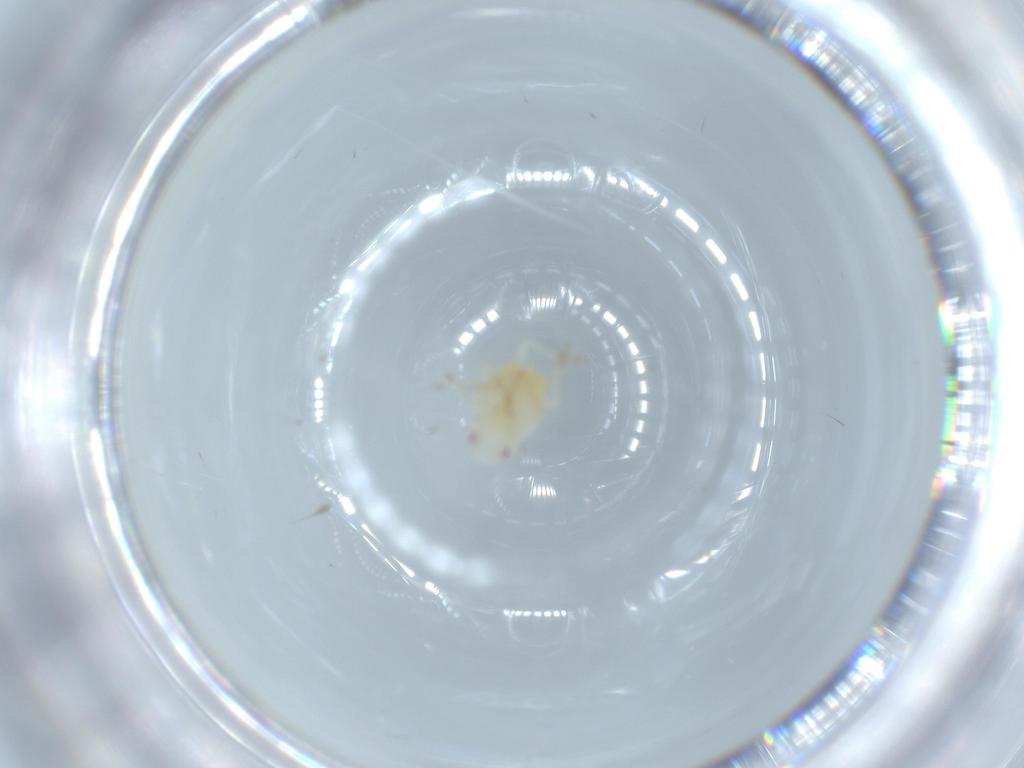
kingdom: Animalia
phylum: Arthropoda
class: Insecta
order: Hemiptera
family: Flatidae
